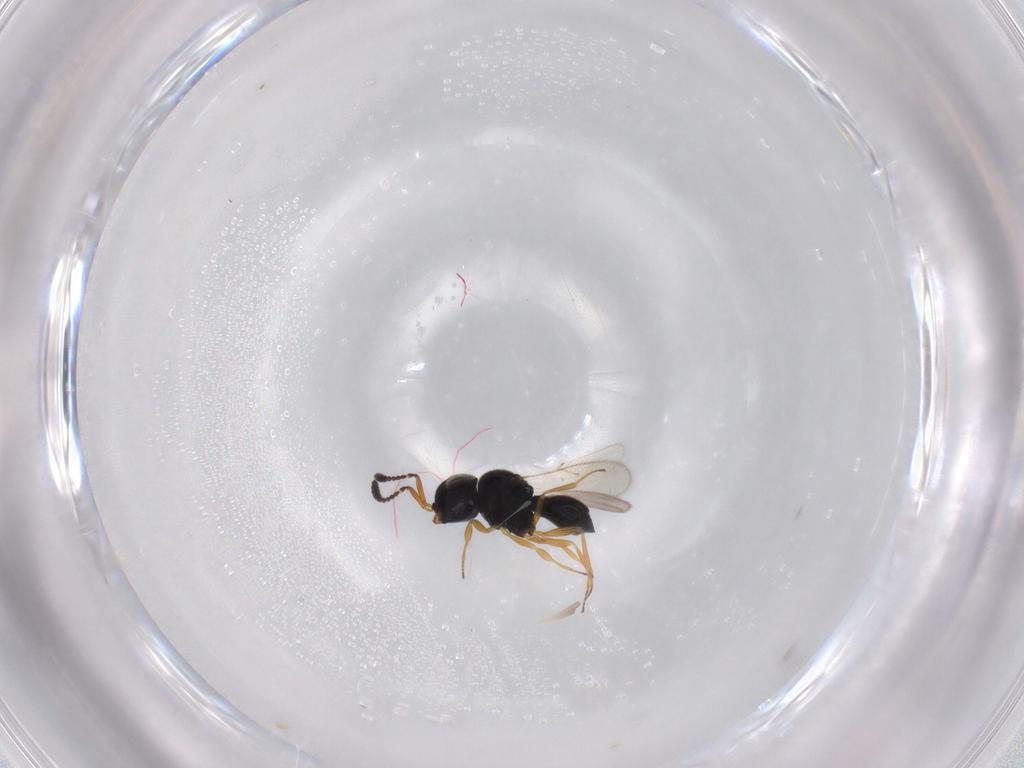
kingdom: Animalia
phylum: Arthropoda
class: Insecta
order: Hymenoptera
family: Scelionidae
